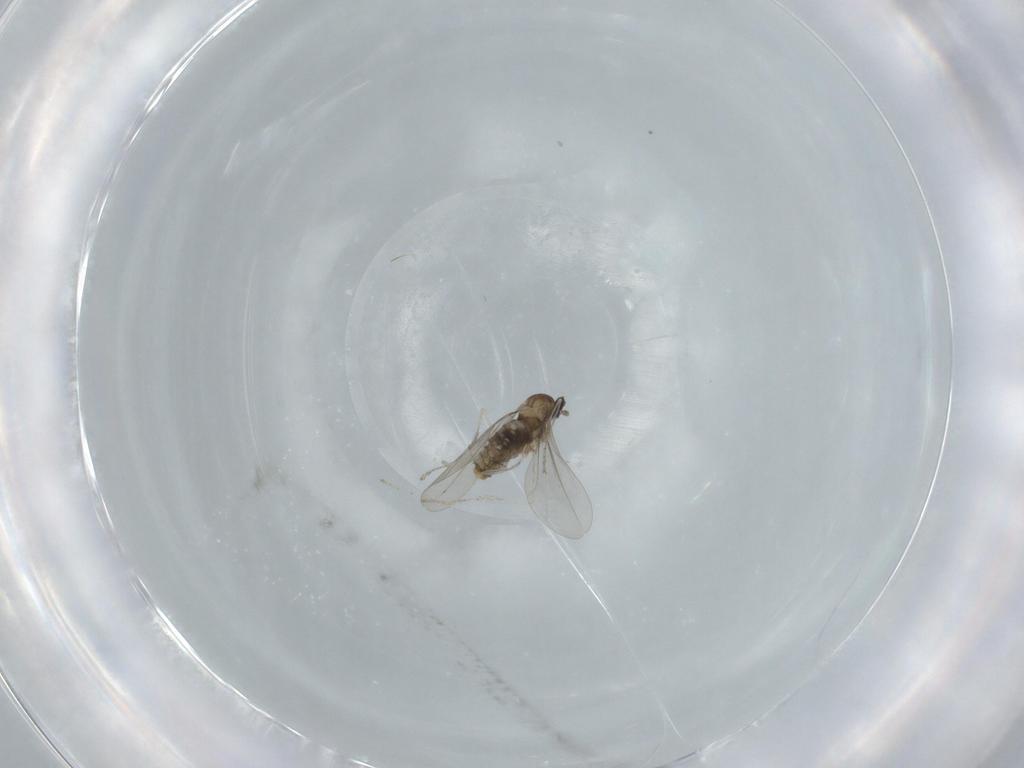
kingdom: Animalia
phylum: Arthropoda
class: Insecta
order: Diptera
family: Cecidomyiidae
